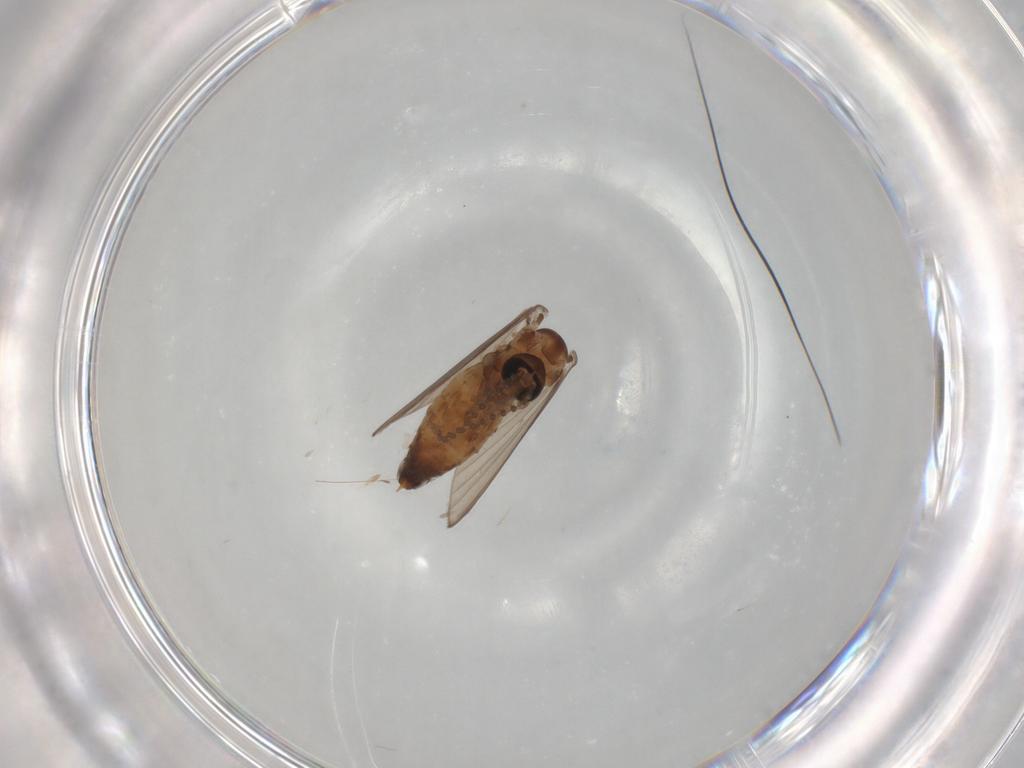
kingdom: Animalia
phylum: Arthropoda
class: Insecta
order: Diptera
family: Psychodidae
